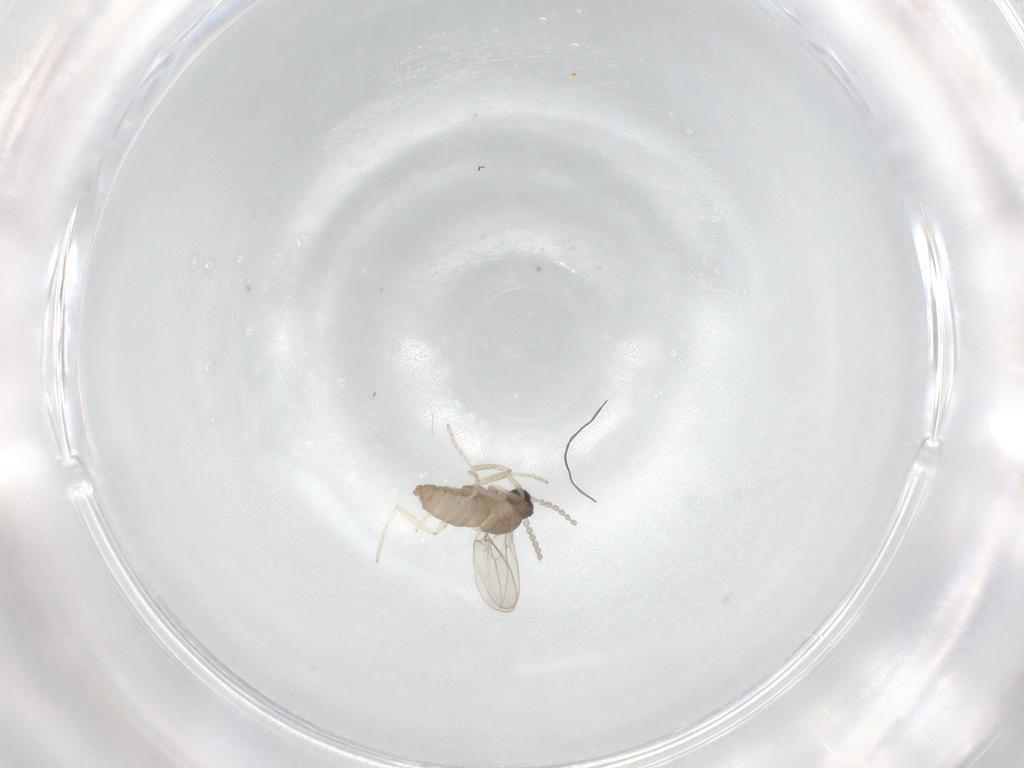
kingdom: Animalia
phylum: Arthropoda
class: Insecta
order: Diptera
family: Cecidomyiidae
